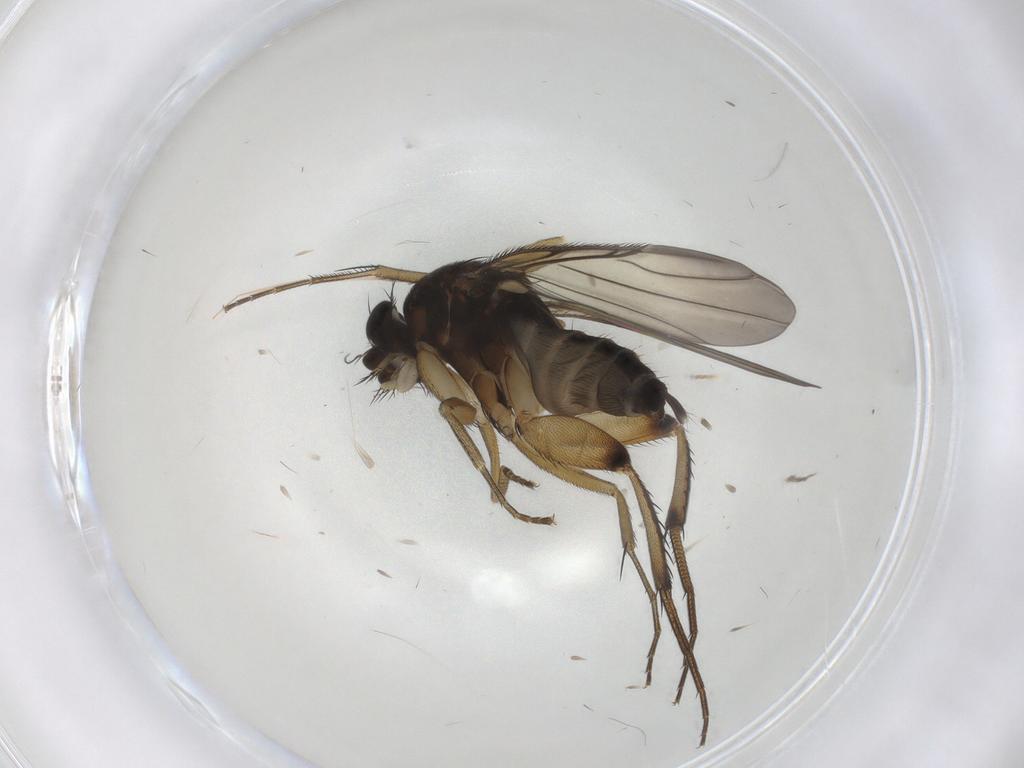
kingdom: Animalia
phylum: Arthropoda
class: Insecta
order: Diptera
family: Phoridae
